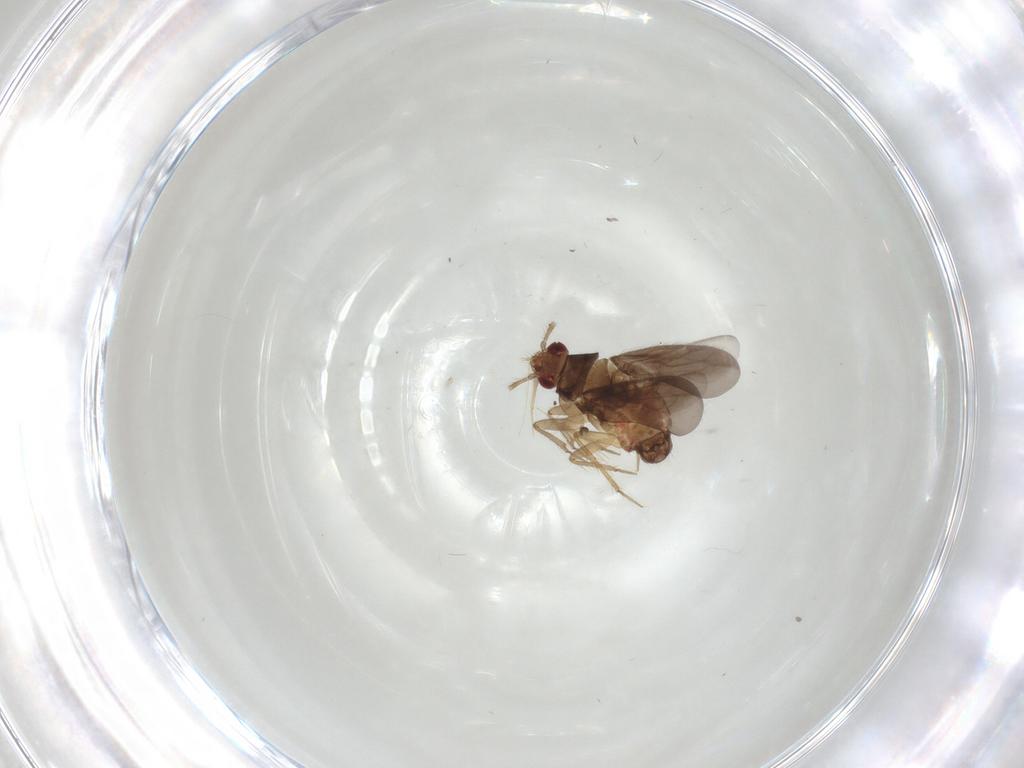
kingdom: Animalia
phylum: Arthropoda
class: Insecta
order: Hemiptera
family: Ceratocombidae
